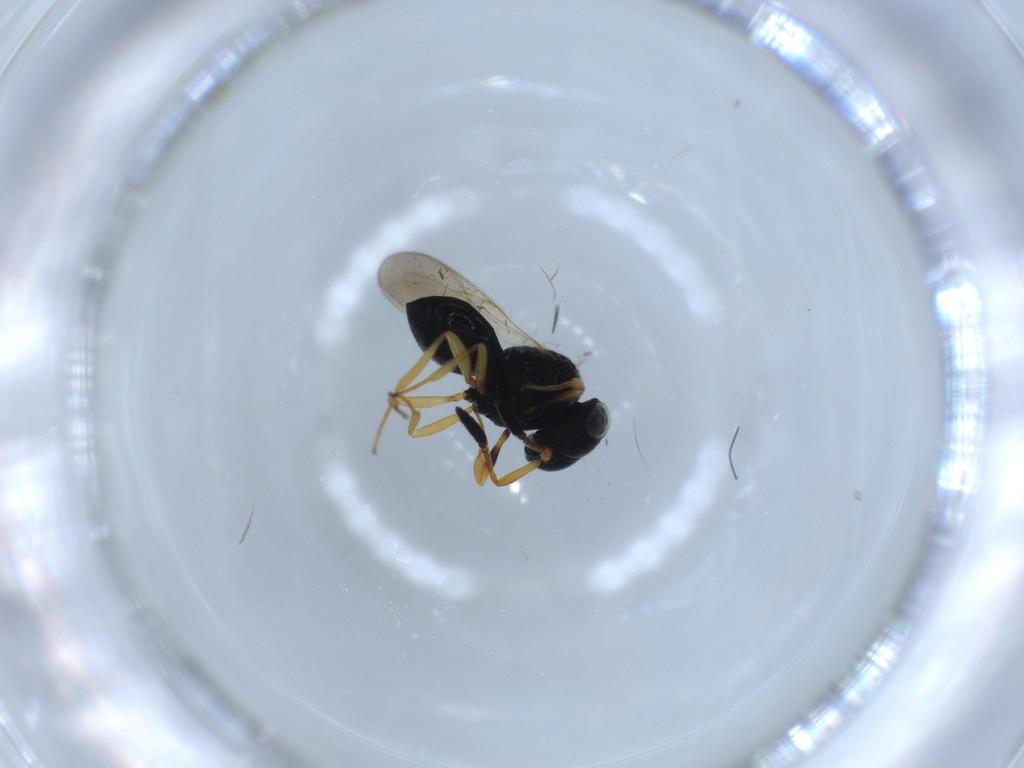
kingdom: Animalia
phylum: Arthropoda
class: Insecta
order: Hymenoptera
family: Scelionidae
